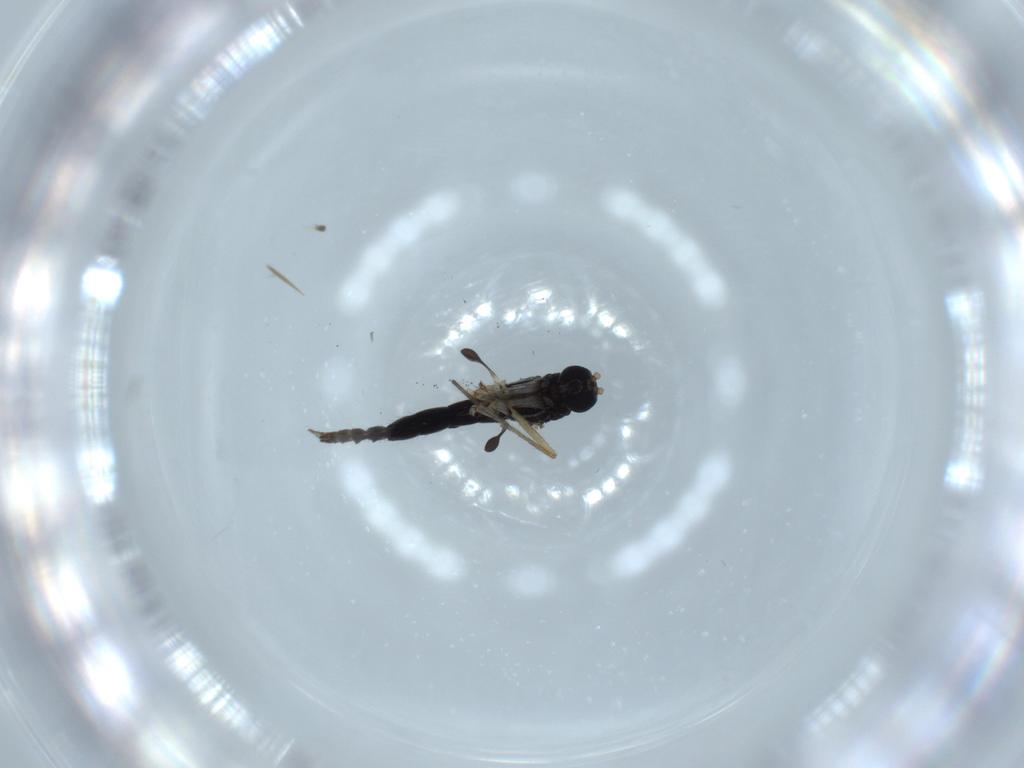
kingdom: Animalia
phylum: Arthropoda
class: Insecta
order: Diptera
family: Sciaridae
